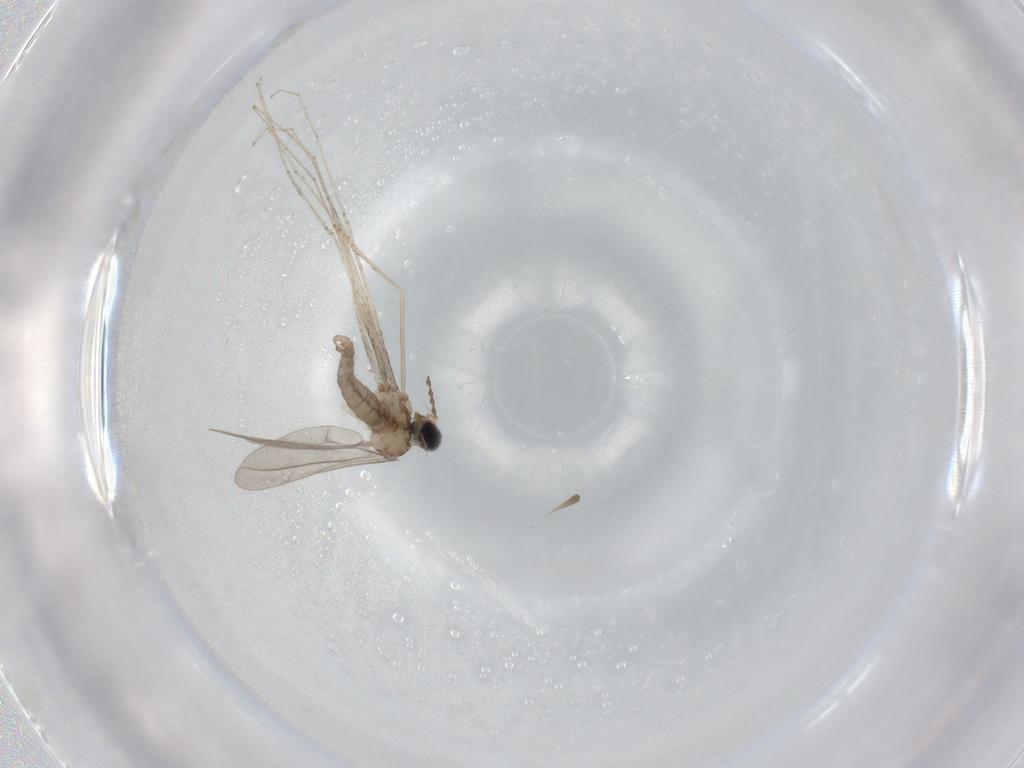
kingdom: Animalia
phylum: Arthropoda
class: Insecta
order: Diptera
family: Cecidomyiidae
